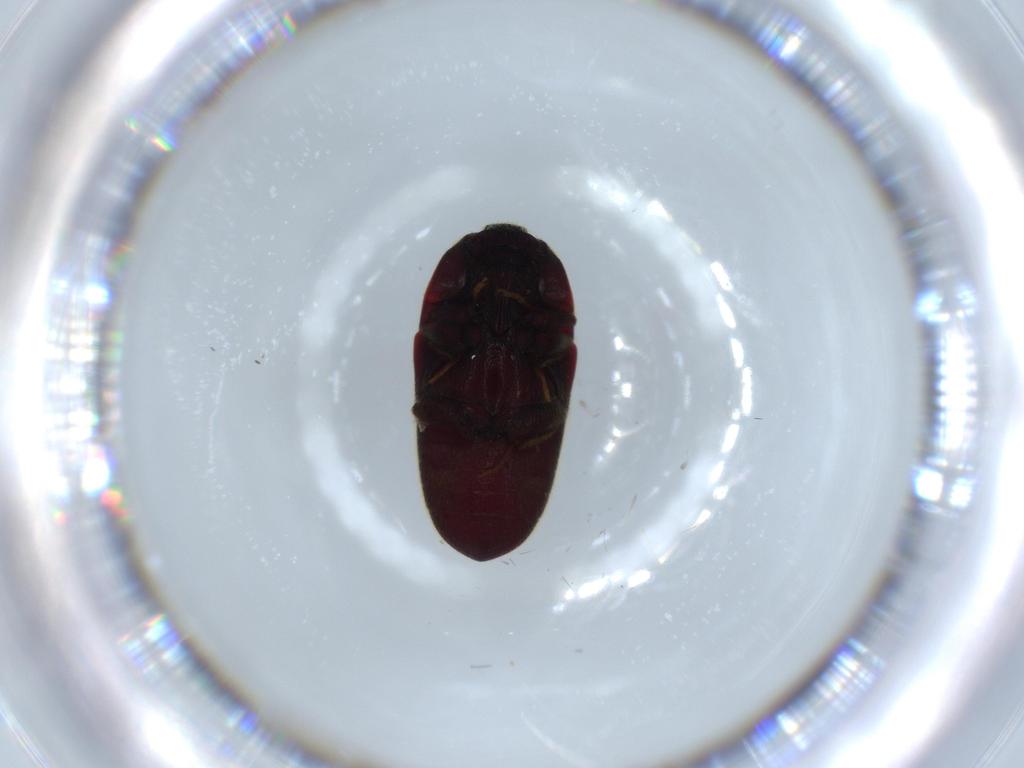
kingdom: Animalia
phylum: Arthropoda
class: Insecta
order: Coleoptera
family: Throscidae
